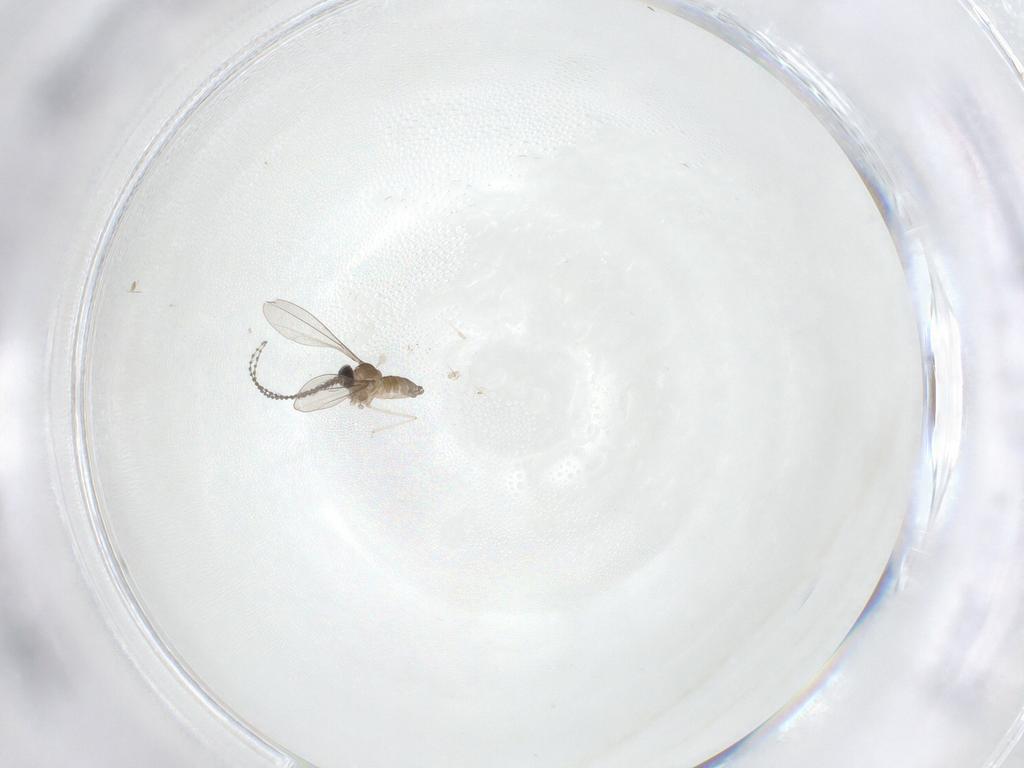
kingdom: Animalia
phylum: Arthropoda
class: Insecta
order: Diptera
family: Cecidomyiidae
